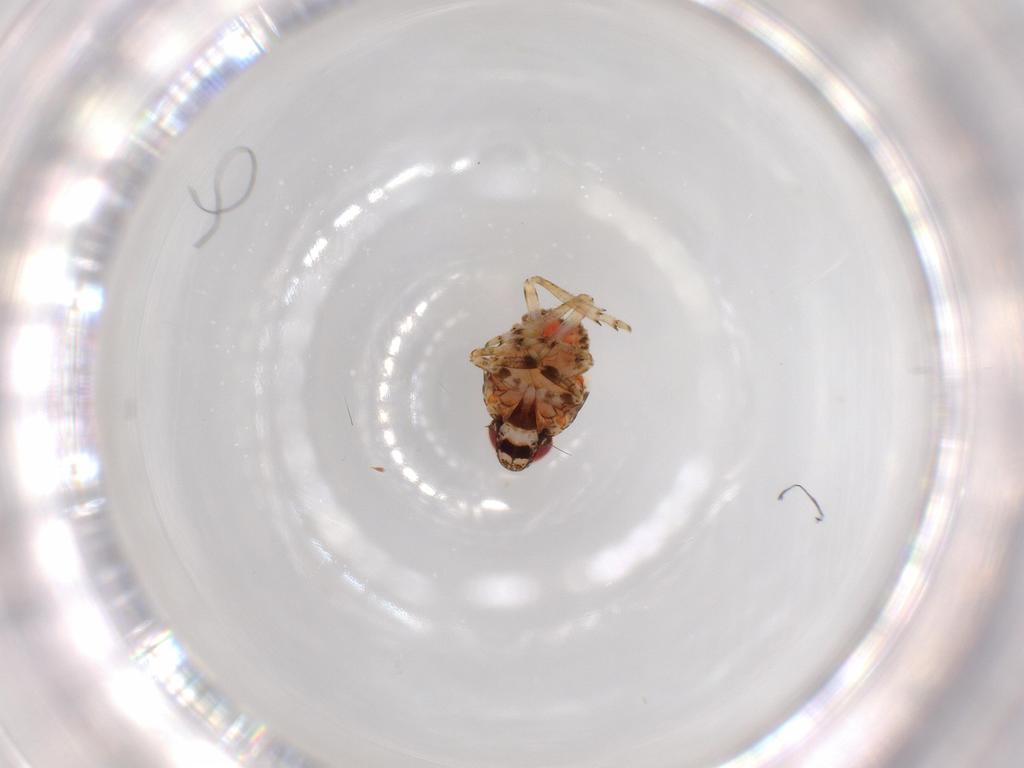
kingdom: Animalia
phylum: Arthropoda
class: Insecta
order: Hemiptera
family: Issidae
